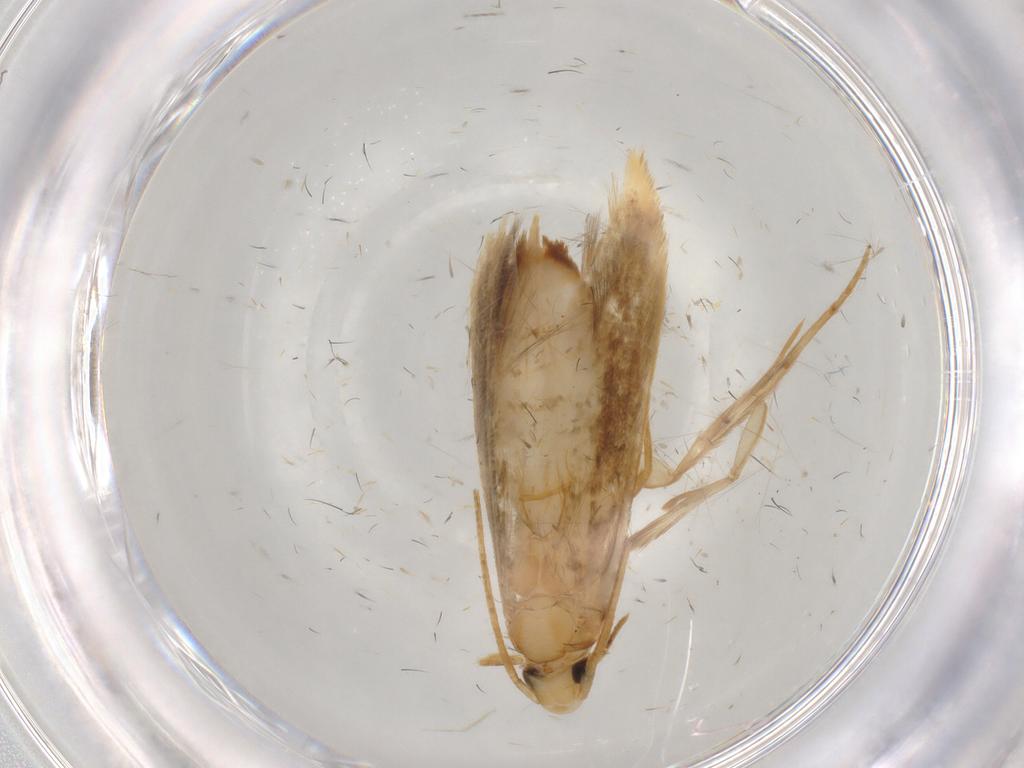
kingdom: Animalia
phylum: Arthropoda
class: Insecta
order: Lepidoptera
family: Tineidae
